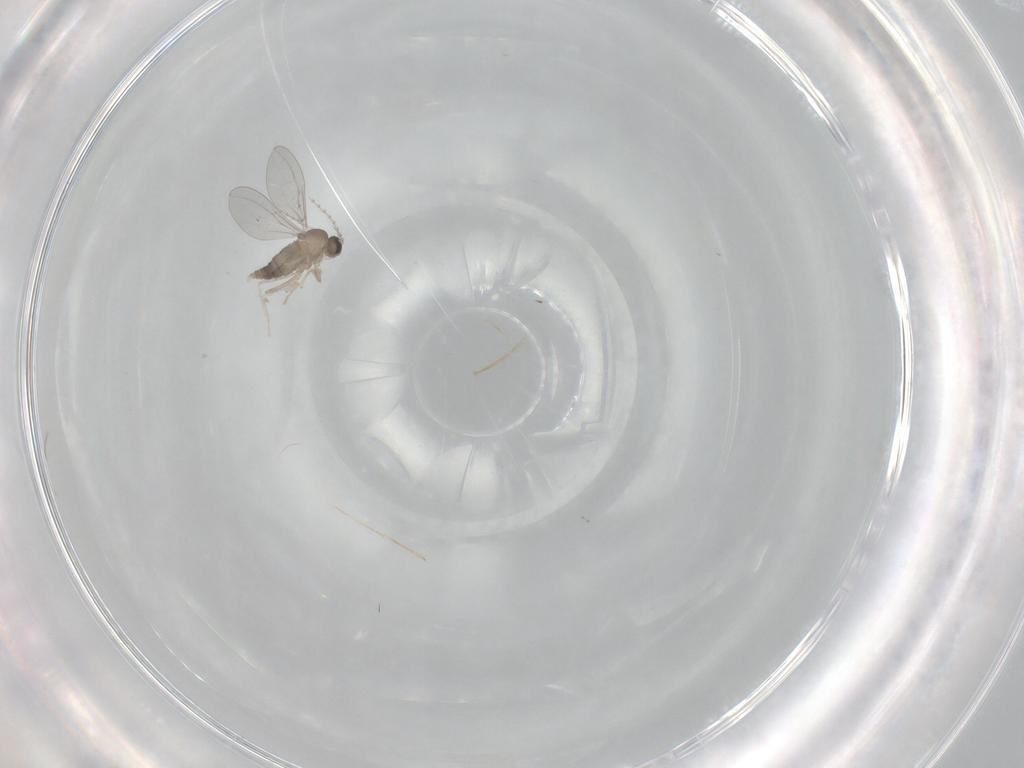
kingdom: Animalia
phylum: Arthropoda
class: Insecta
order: Diptera
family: Cecidomyiidae
